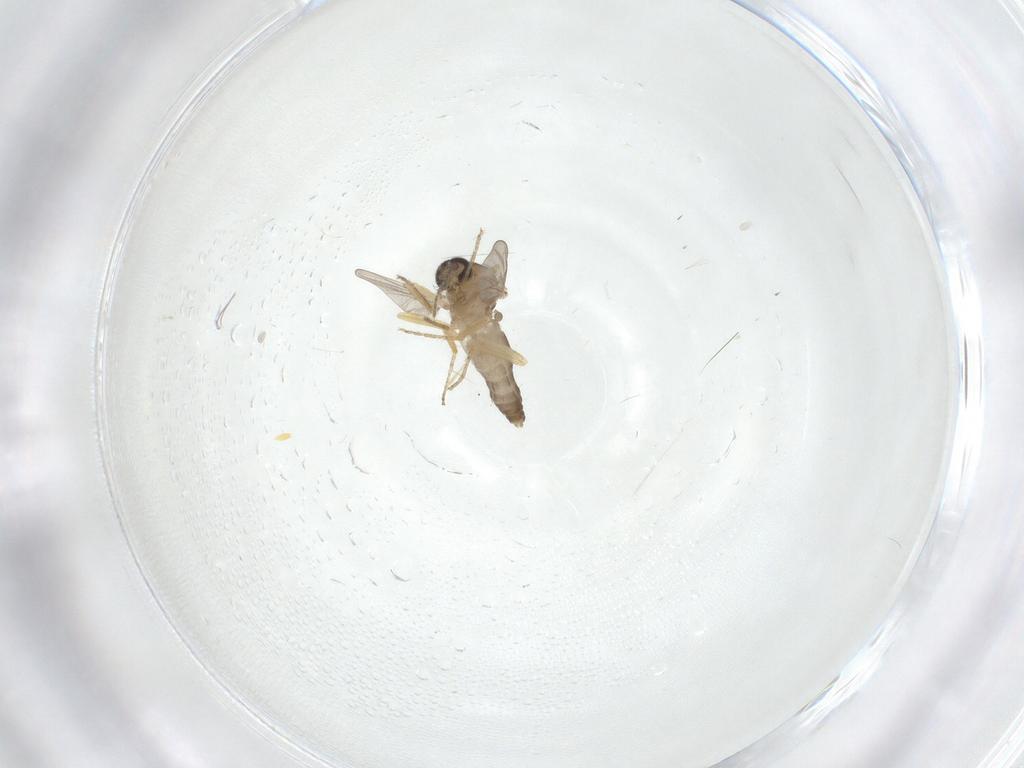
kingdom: Animalia
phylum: Arthropoda
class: Insecta
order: Diptera
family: Ceratopogonidae
